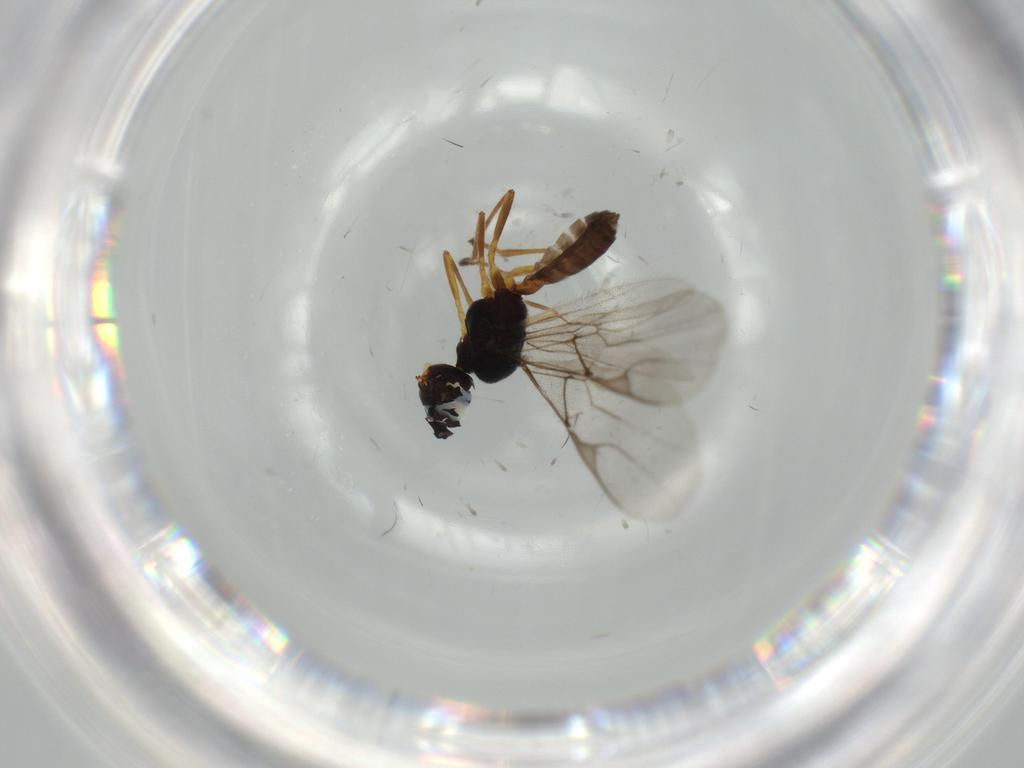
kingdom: Animalia
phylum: Arthropoda
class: Insecta
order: Hymenoptera
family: Braconidae
